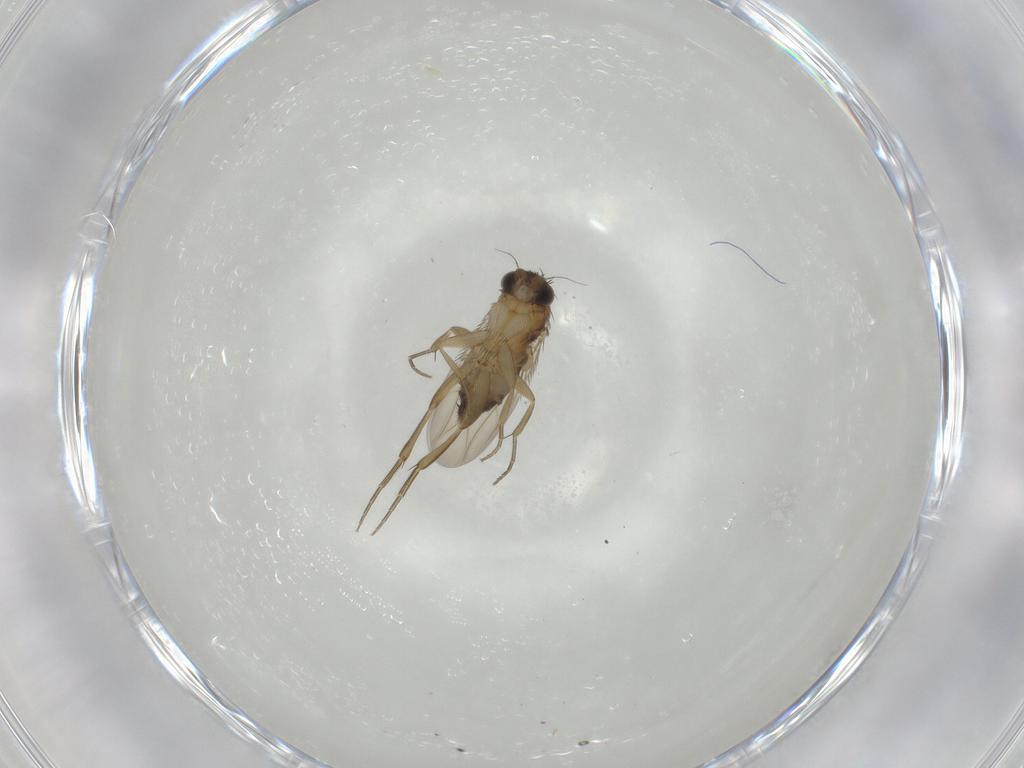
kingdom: Animalia
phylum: Arthropoda
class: Insecta
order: Diptera
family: Phoridae
